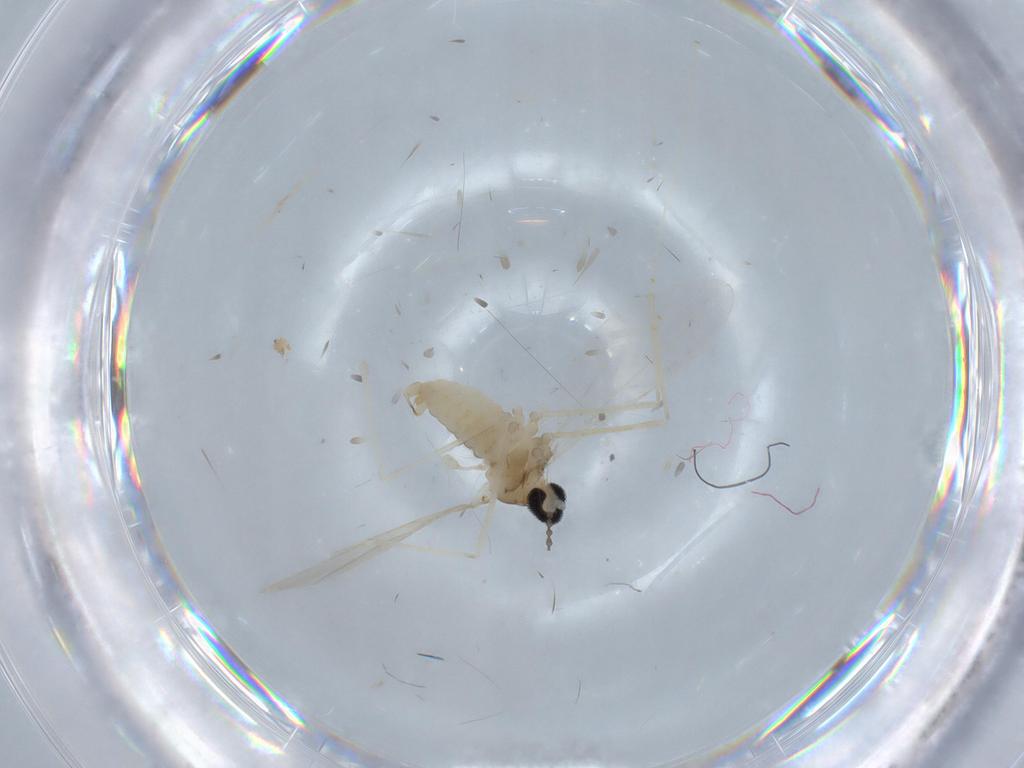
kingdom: Animalia
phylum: Arthropoda
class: Insecta
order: Diptera
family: Cecidomyiidae
